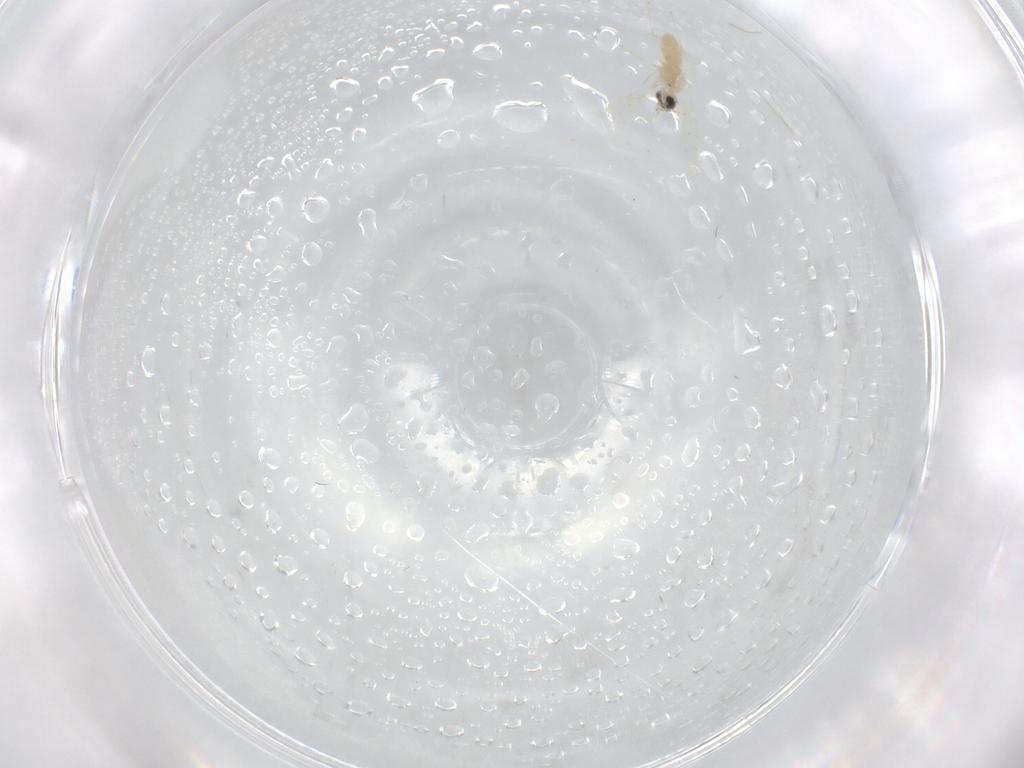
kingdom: Animalia
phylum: Arthropoda
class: Insecta
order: Diptera
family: Cecidomyiidae
